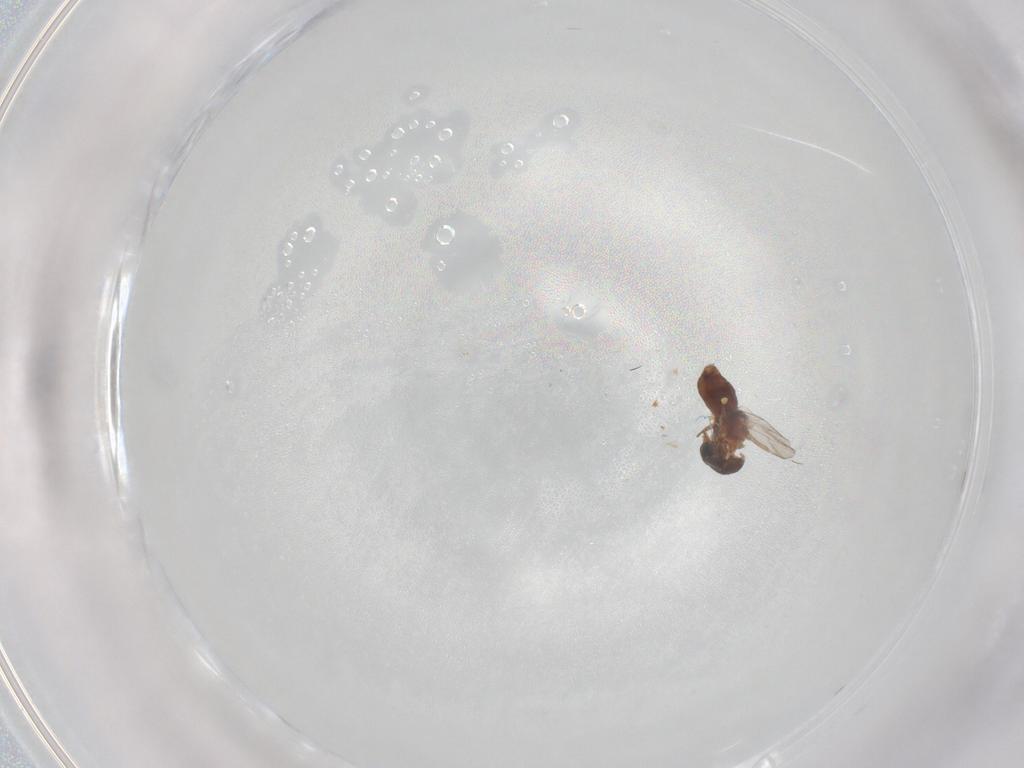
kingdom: Animalia
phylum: Arthropoda
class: Insecta
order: Diptera
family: Ceratopogonidae
